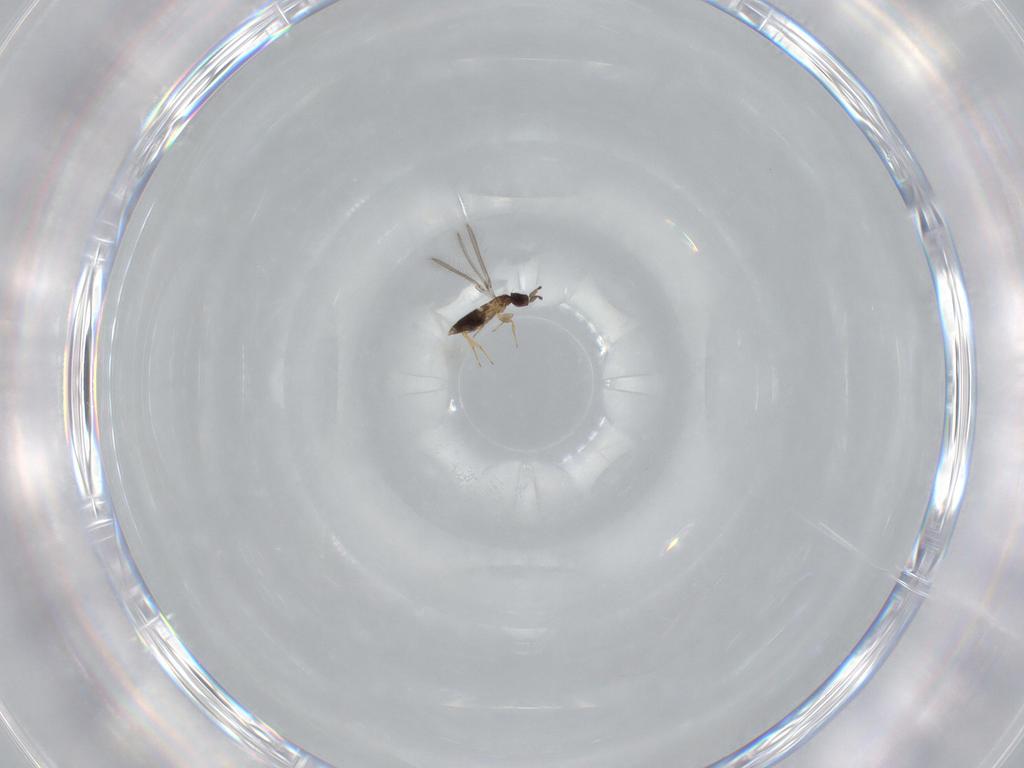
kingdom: Animalia
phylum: Arthropoda
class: Insecta
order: Hymenoptera
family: Mymaridae
